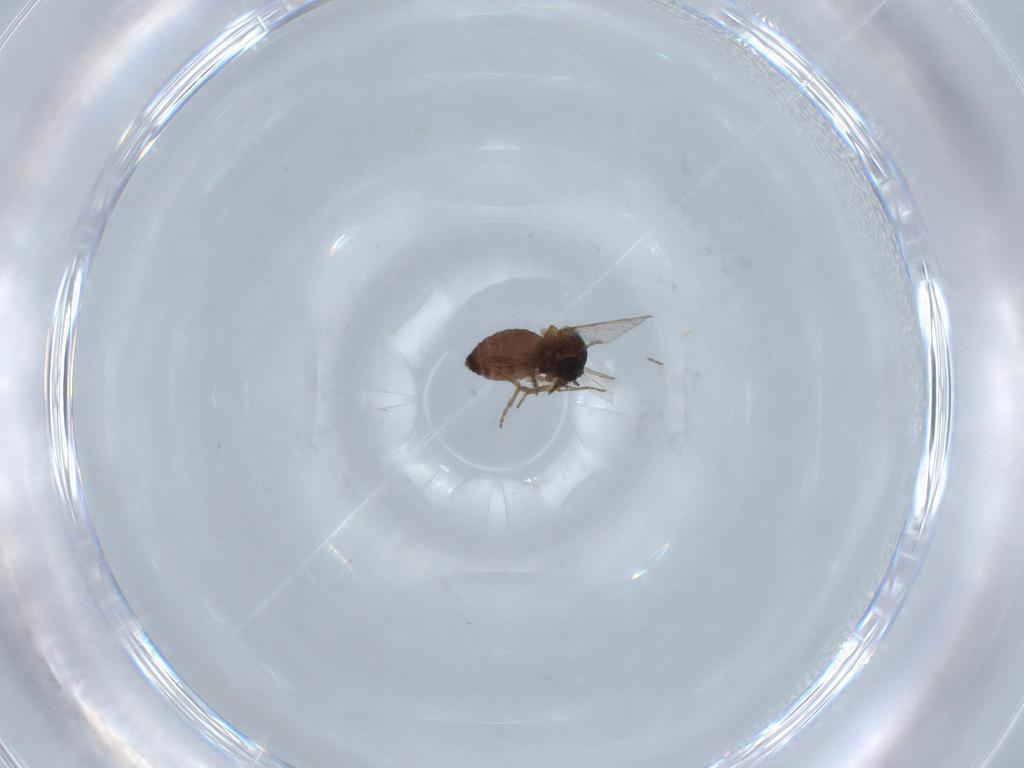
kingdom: Animalia
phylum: Arthropoda
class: Insecta
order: Diptera
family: Ceratopogonidae
